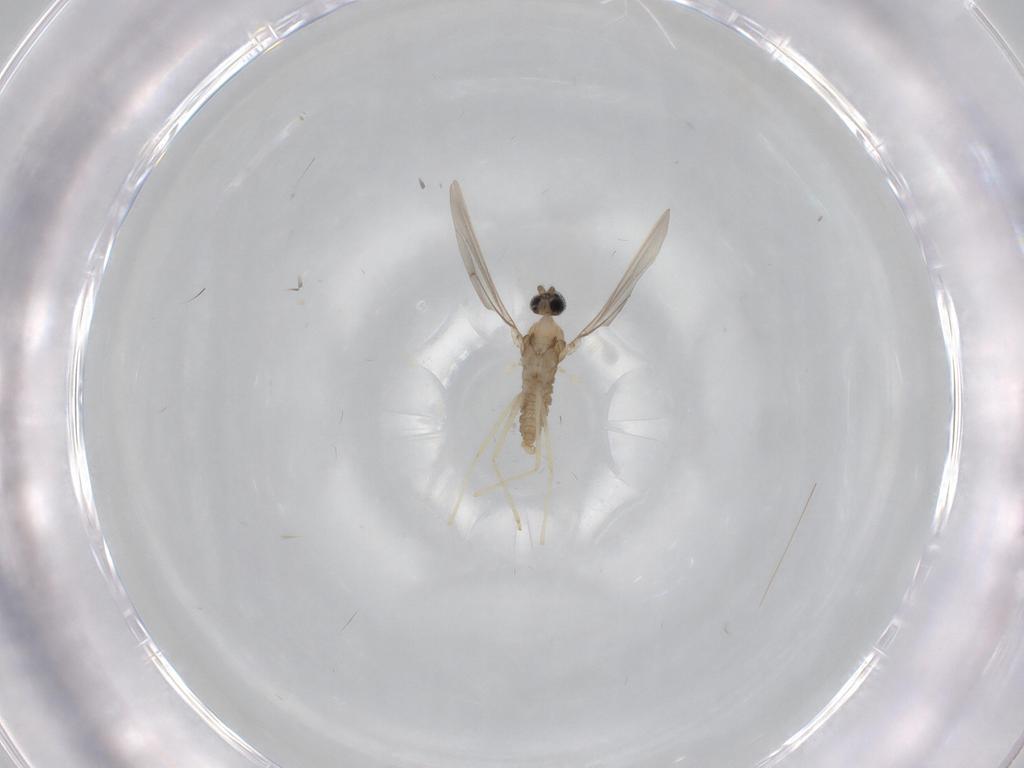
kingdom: Animalia
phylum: Arthropoda
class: Insecta
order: Diptera
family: Cecidomyiidae
